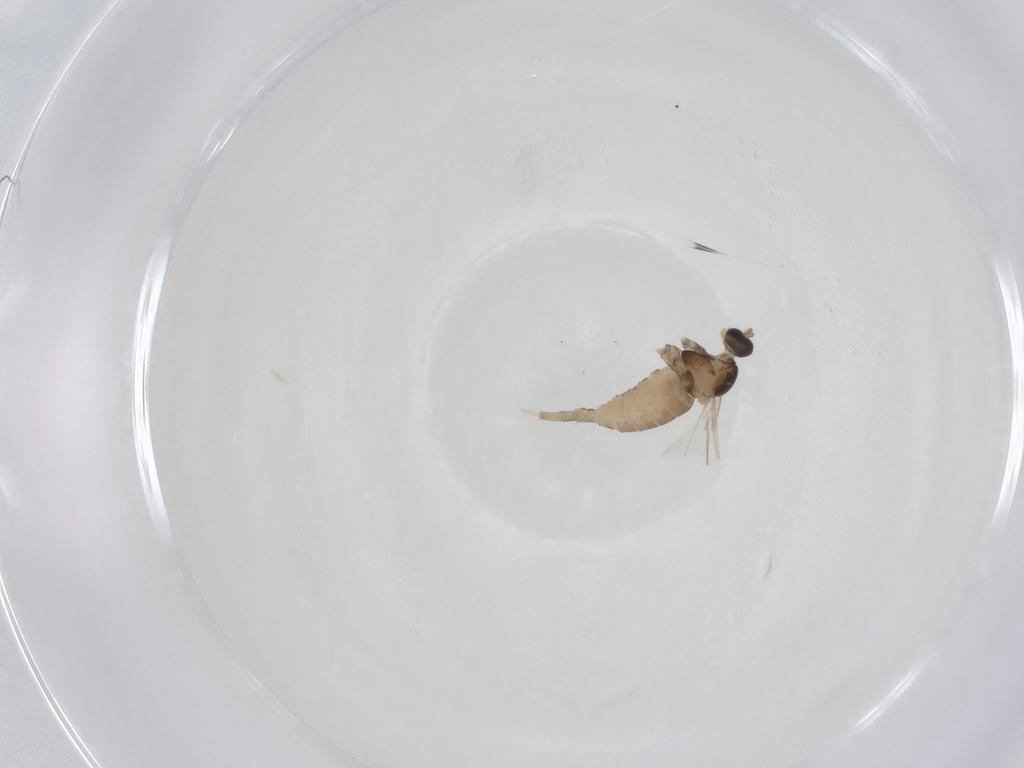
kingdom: Animalia
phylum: Arthropoda
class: Insecta
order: Diptera
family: Cecidomyiidae
